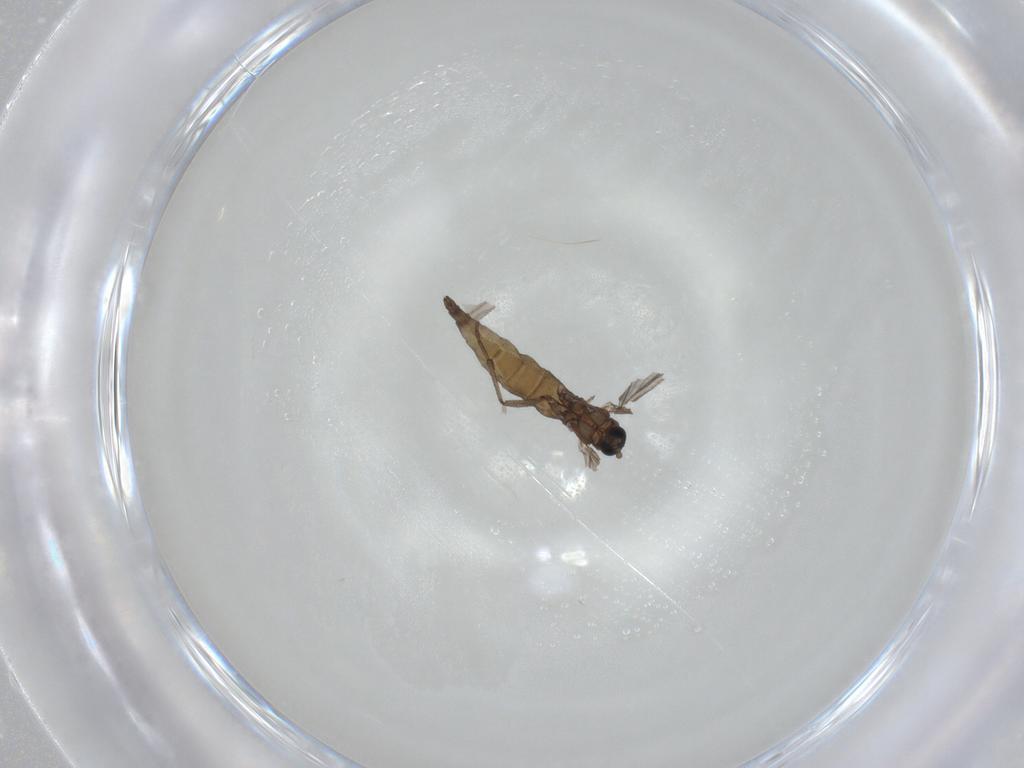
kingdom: Animalia
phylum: Arthropoda
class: Insecta
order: Diptera
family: Sciaridae
